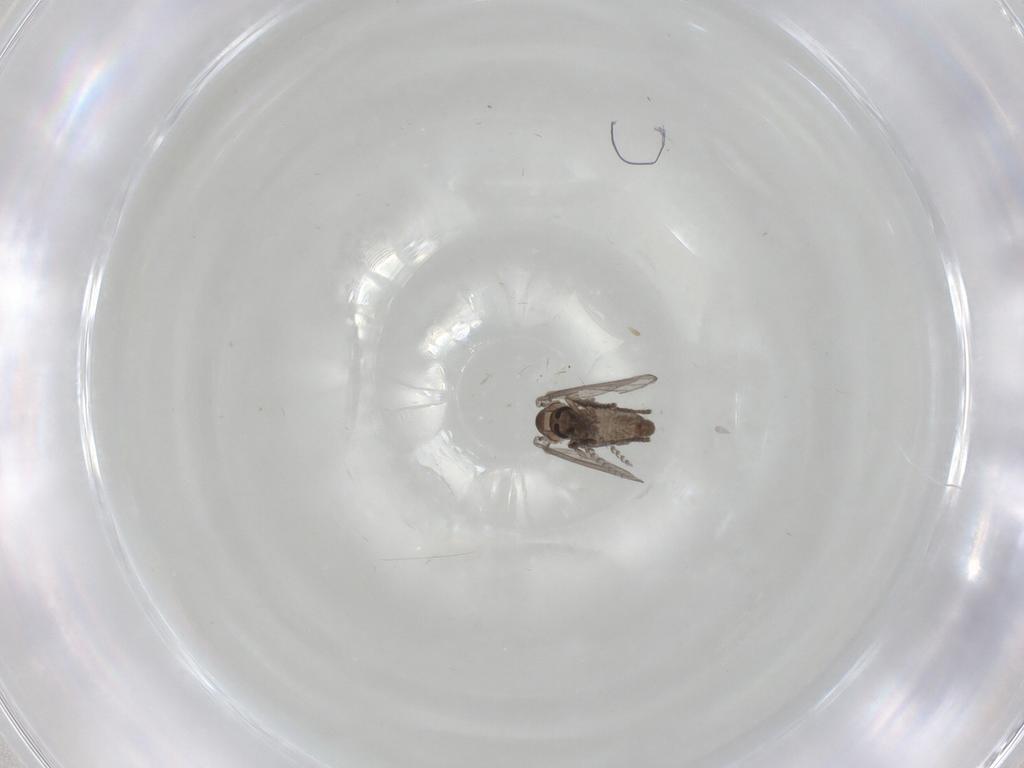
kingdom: Animalia
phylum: Arthropoda
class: Insecta
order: Diptera
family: Psychodidae
